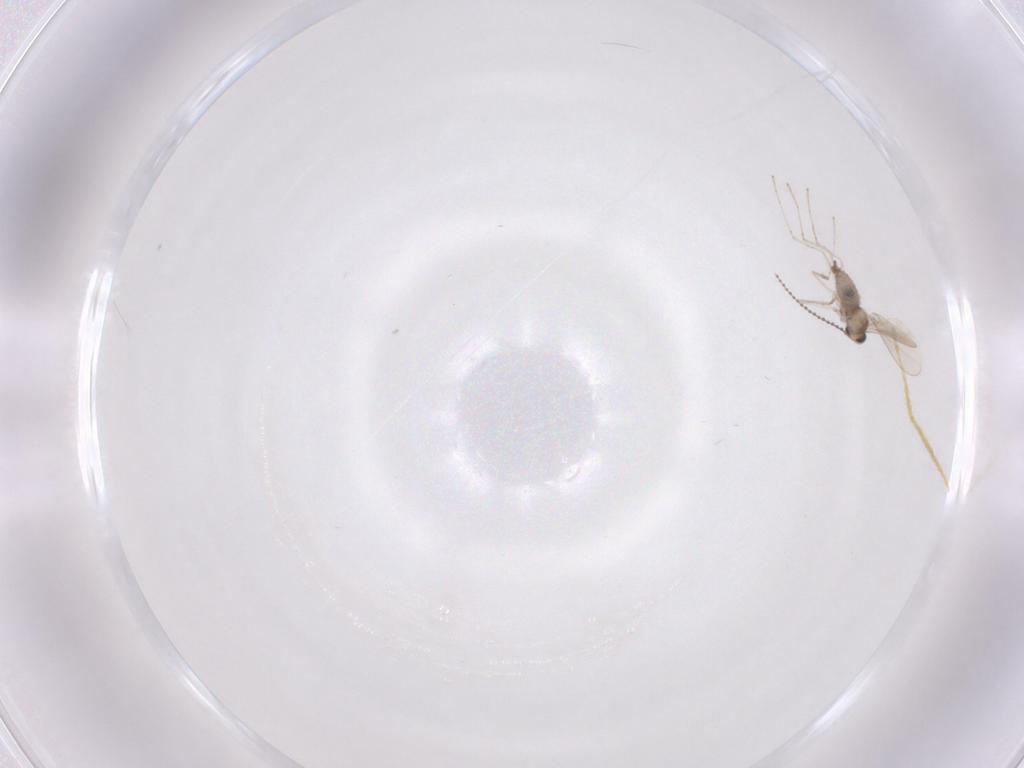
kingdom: Animalia
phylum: Arthropoda
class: Insecta
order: Diptera
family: Cecidomyiidae
